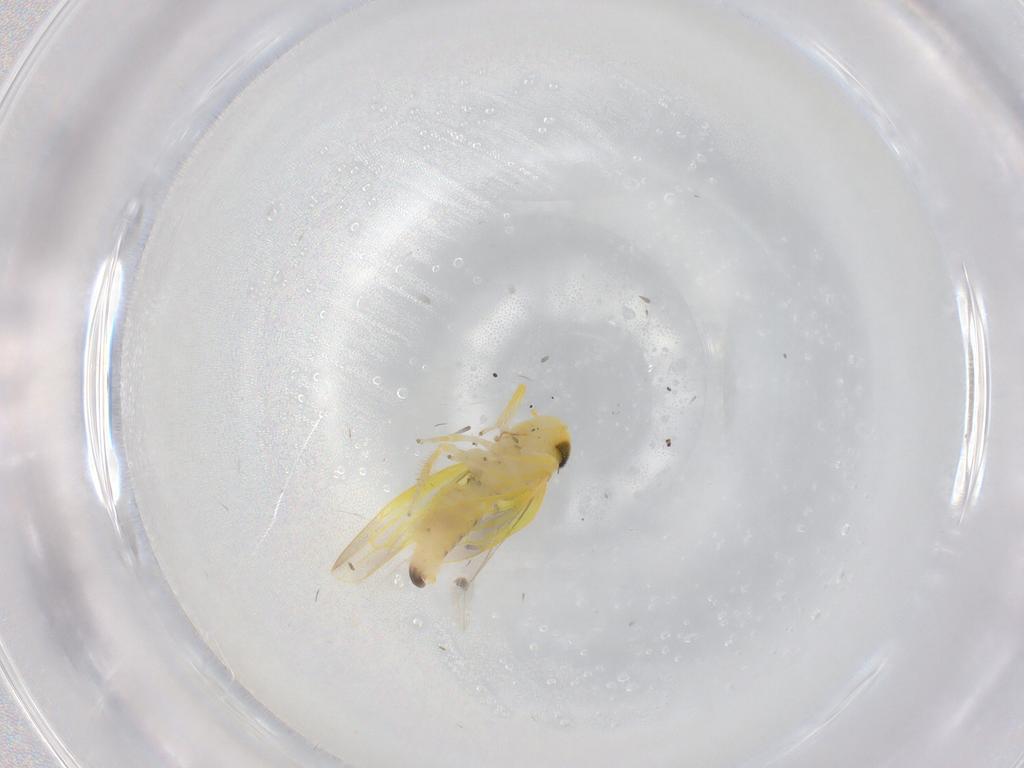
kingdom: Animalia
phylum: Arthropoda
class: Insecta
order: Hemiptera
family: Cicadellidae
